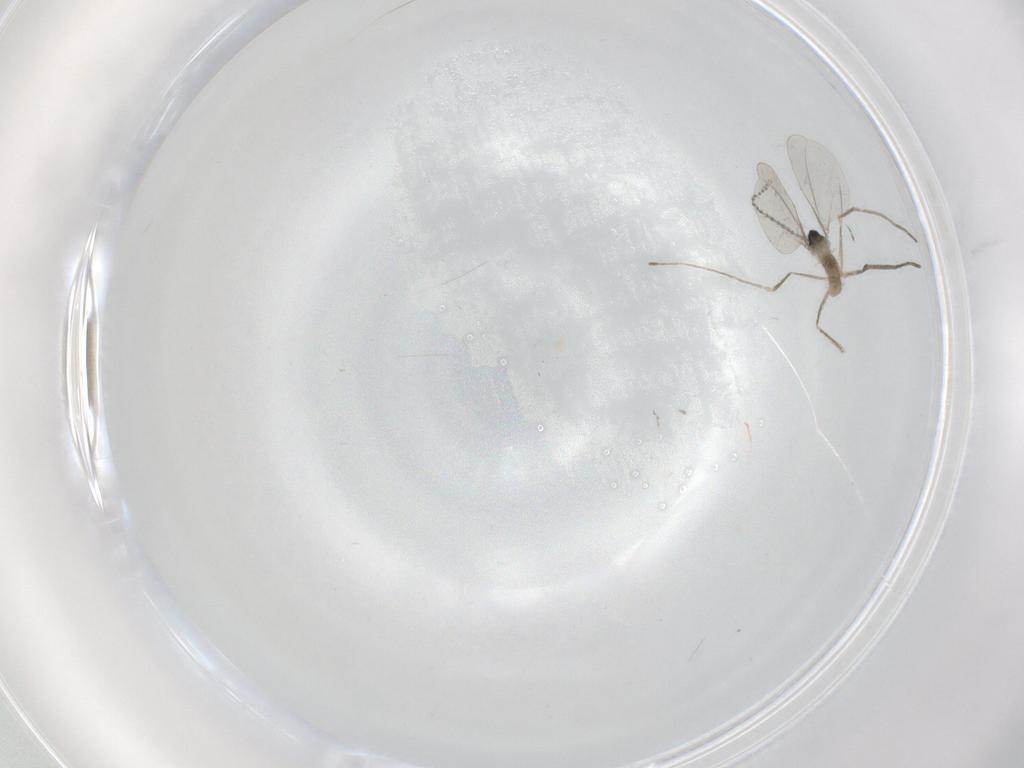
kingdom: Animalia
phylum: Arthropoda
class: Insecta
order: Diptera
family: Cecidomyiidae
